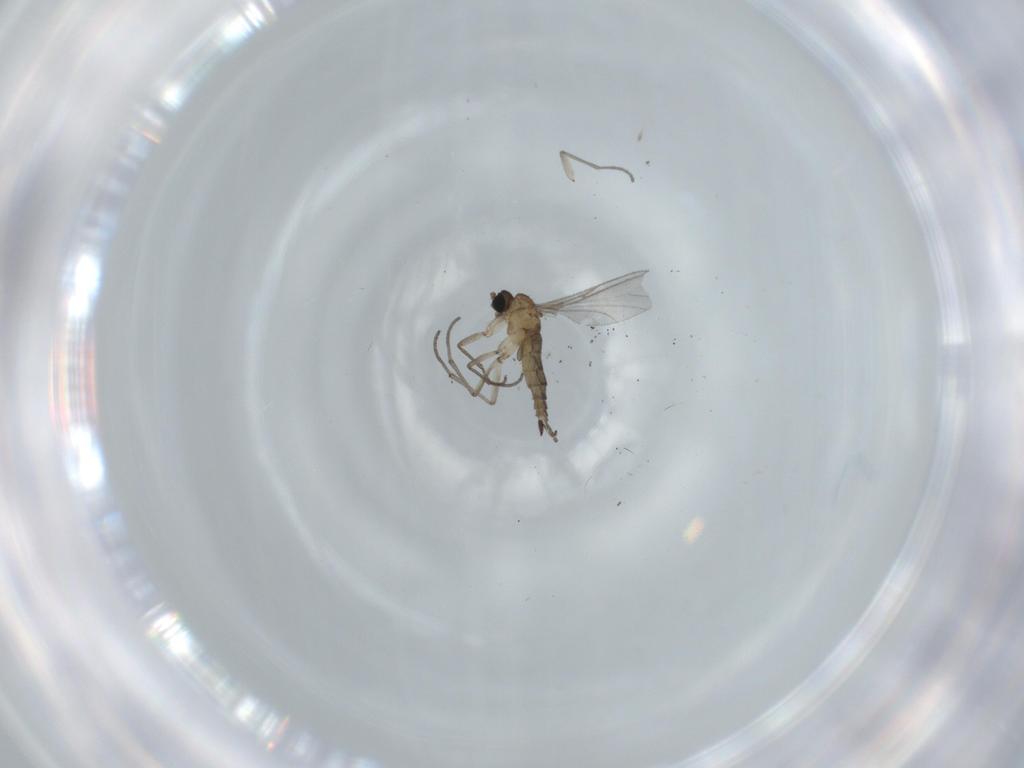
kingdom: Animalia
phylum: Arthropoda
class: Insecta
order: Diptera
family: Sciaridae
